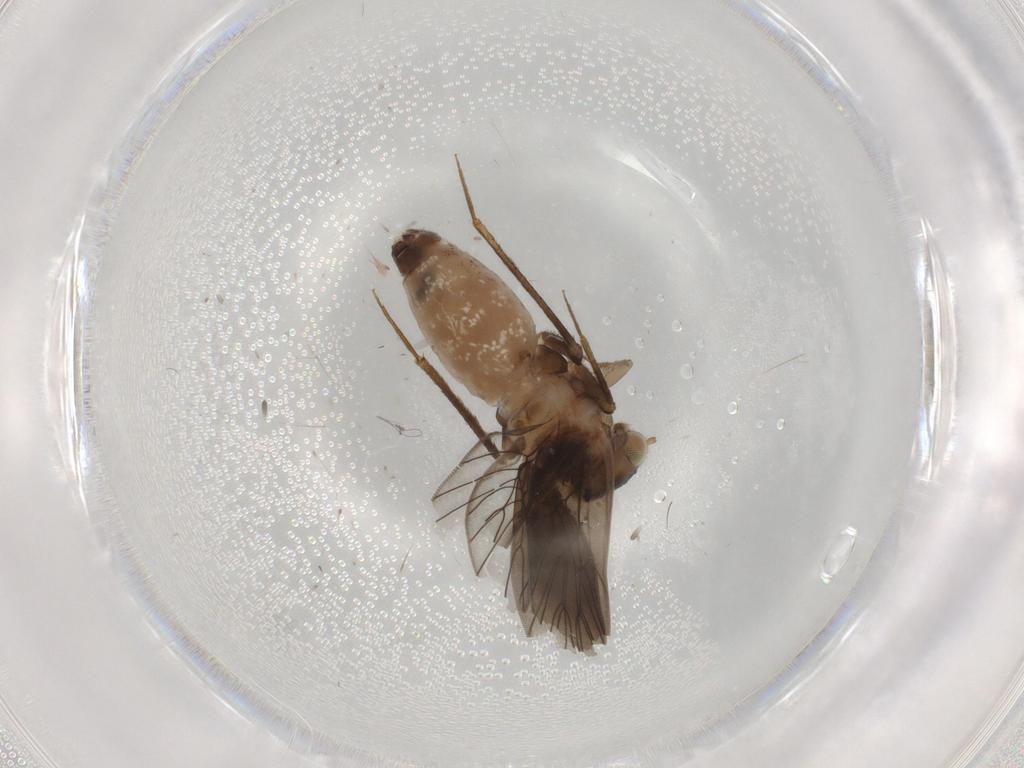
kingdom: Animalia
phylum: Arthropoda
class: Insecta
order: Psocodea
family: Lepidopsocidae
